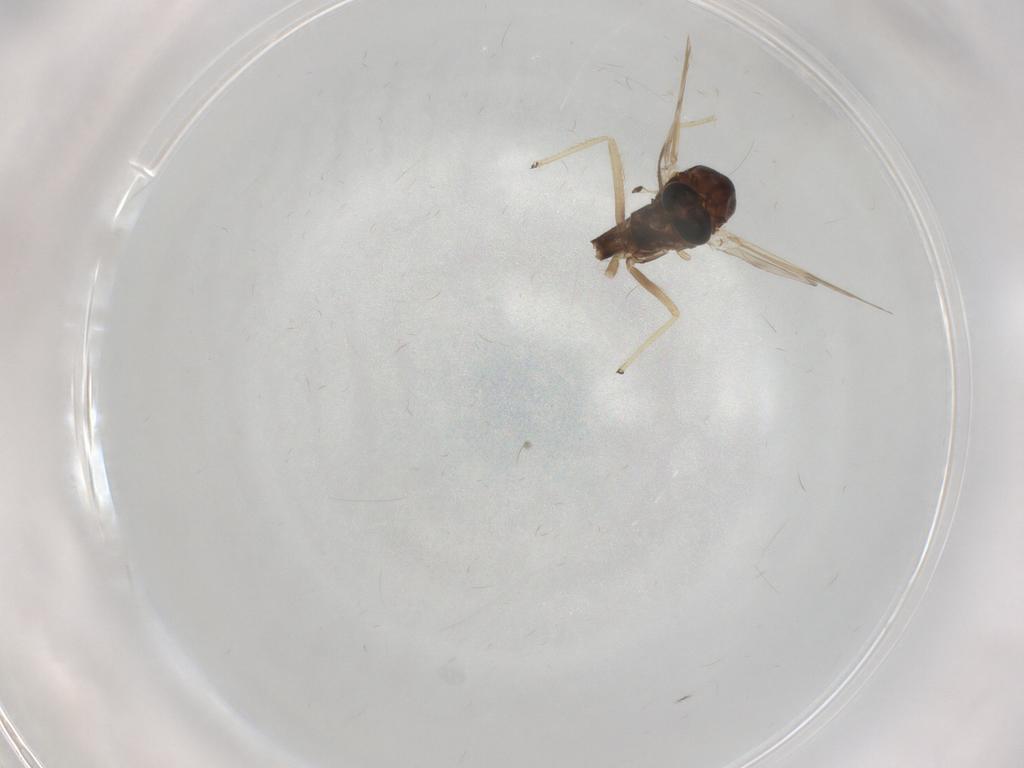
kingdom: Animalia
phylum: Arthropoda
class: Insecta
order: Diptera
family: Chironomidae
